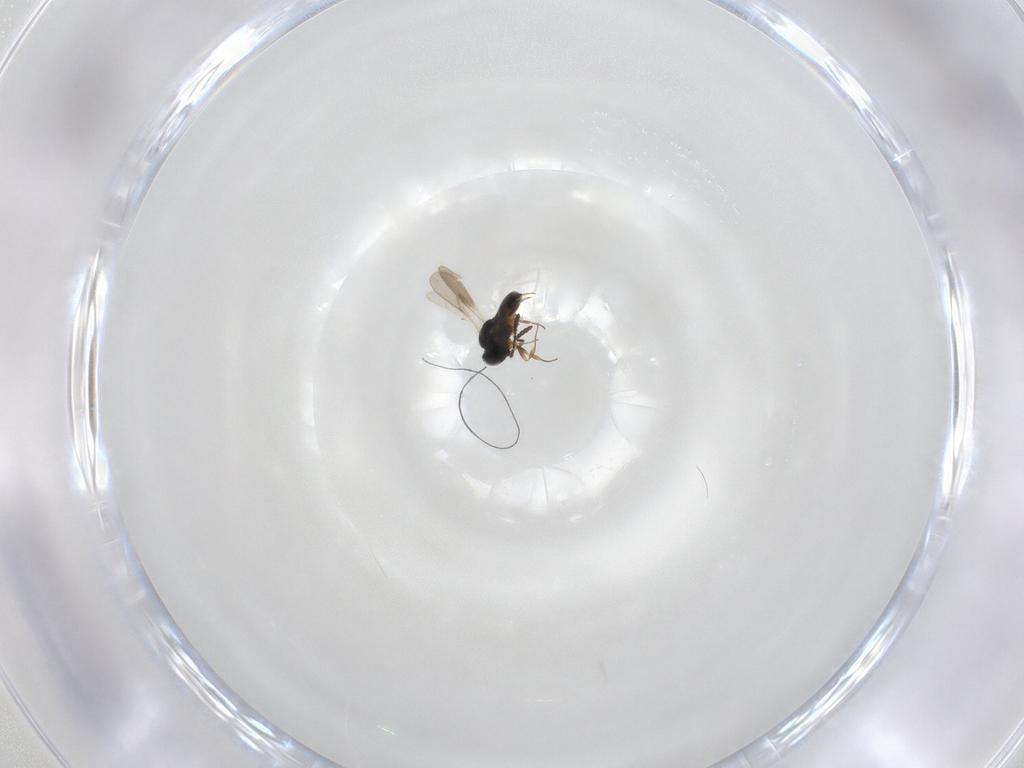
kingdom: Animalia
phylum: Arthropoda
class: Insecta
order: Hymenoptera
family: Scelionidae
